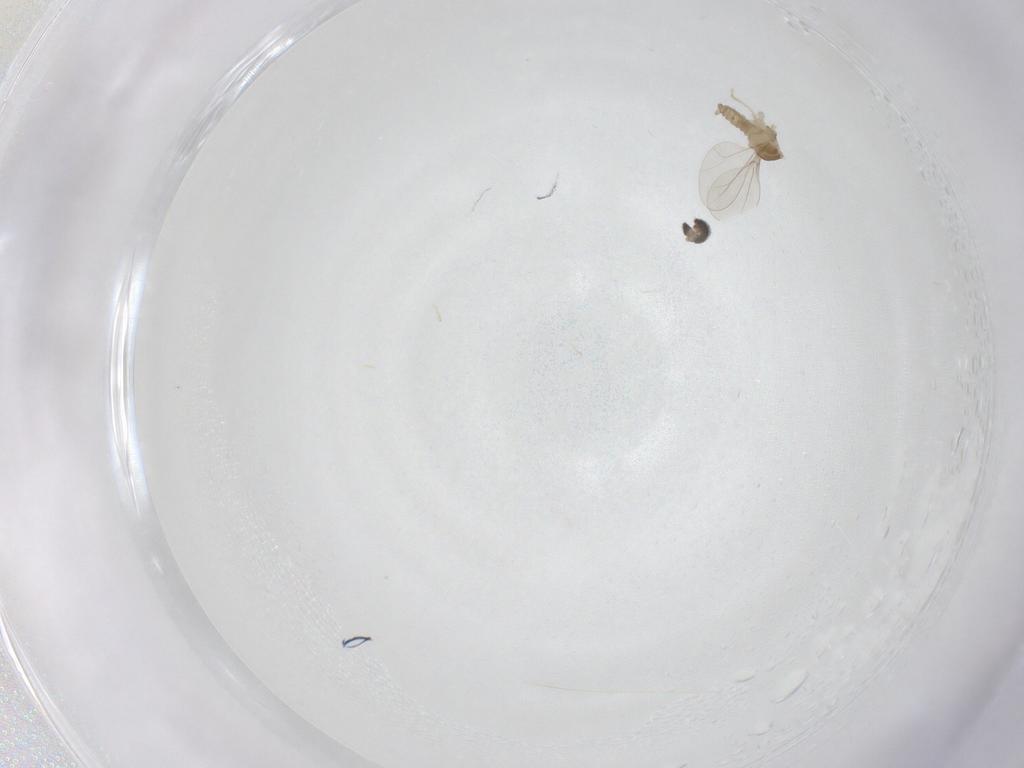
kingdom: Animalia
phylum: Arthropoda
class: Insecta
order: Diptera
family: Cecidomyiidae
